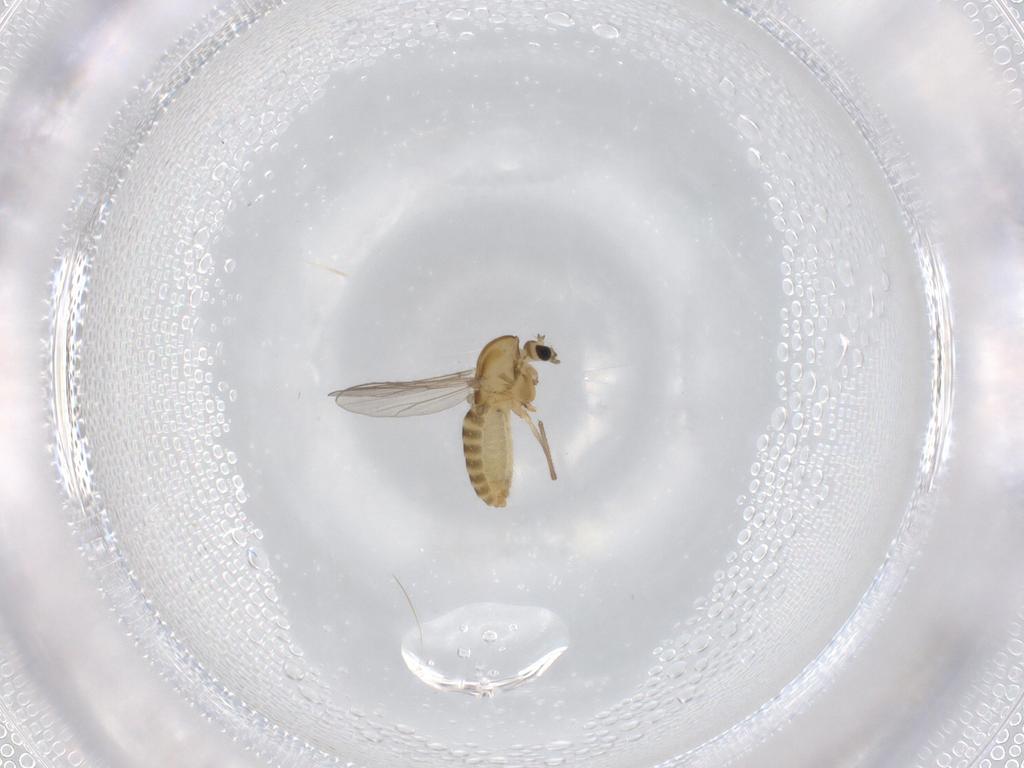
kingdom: Animalia
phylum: Arthropoda
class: Insecta
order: Diptera
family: Chironomidae
